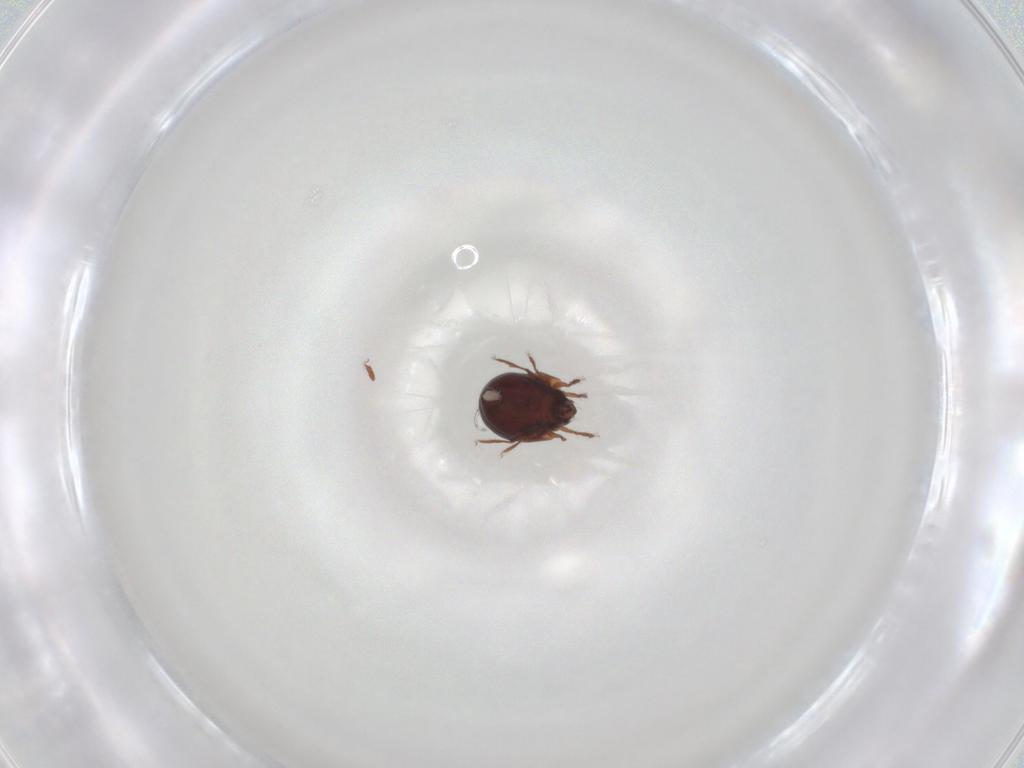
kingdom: Animalia
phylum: Arthropoda
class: Arachnida
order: Sarcoptiformes
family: Humerobatidae
